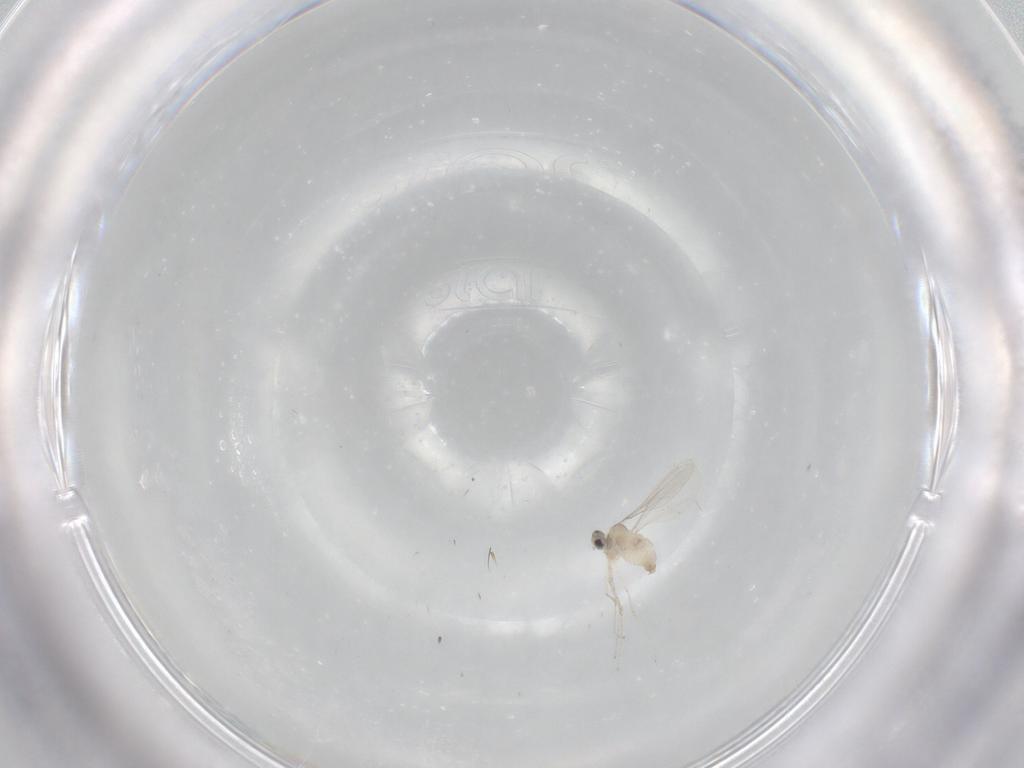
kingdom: Animalia
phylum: Arthropoda
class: Insecta
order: Diptera
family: Cecidomyiidae
